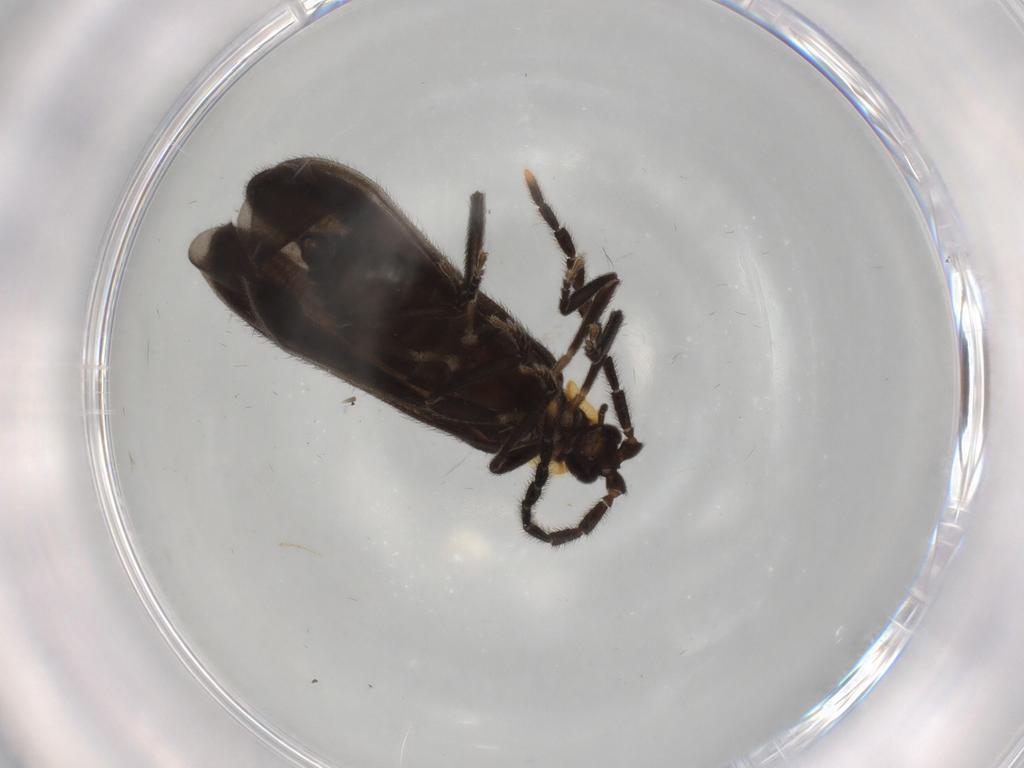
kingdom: Animalia
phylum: Arthropoda
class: Insecta
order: Coleoptera
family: Lycidae
